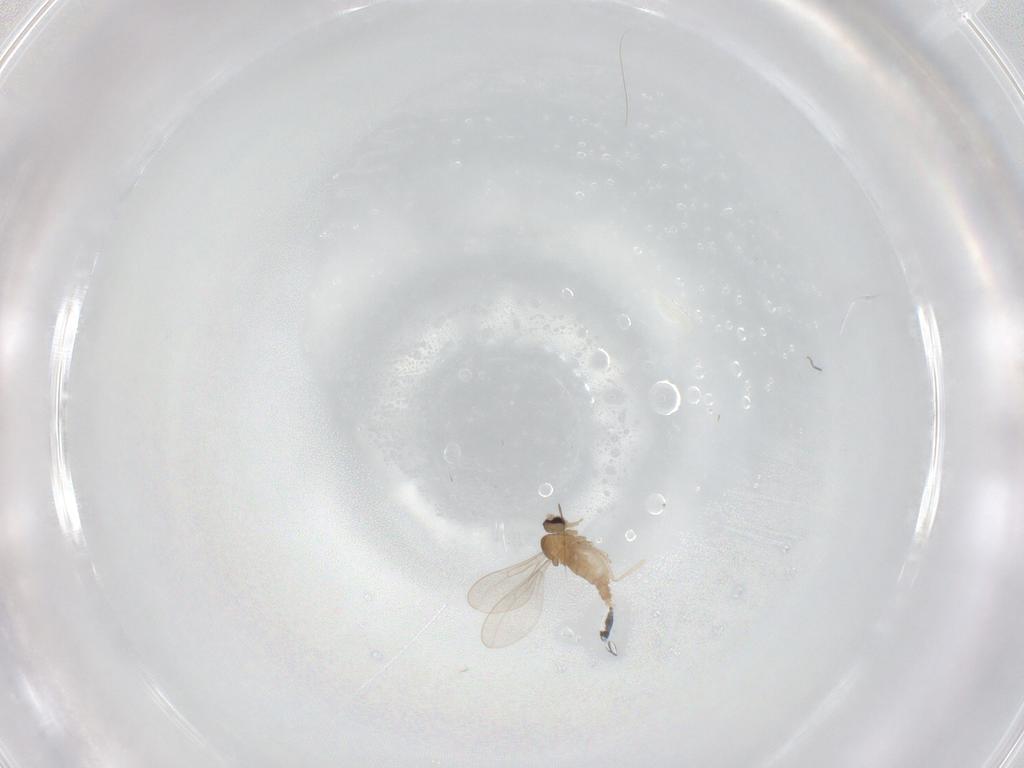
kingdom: Animalia
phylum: Arthropoda
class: Insecta
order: Diptera
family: Cecidomyiidae
